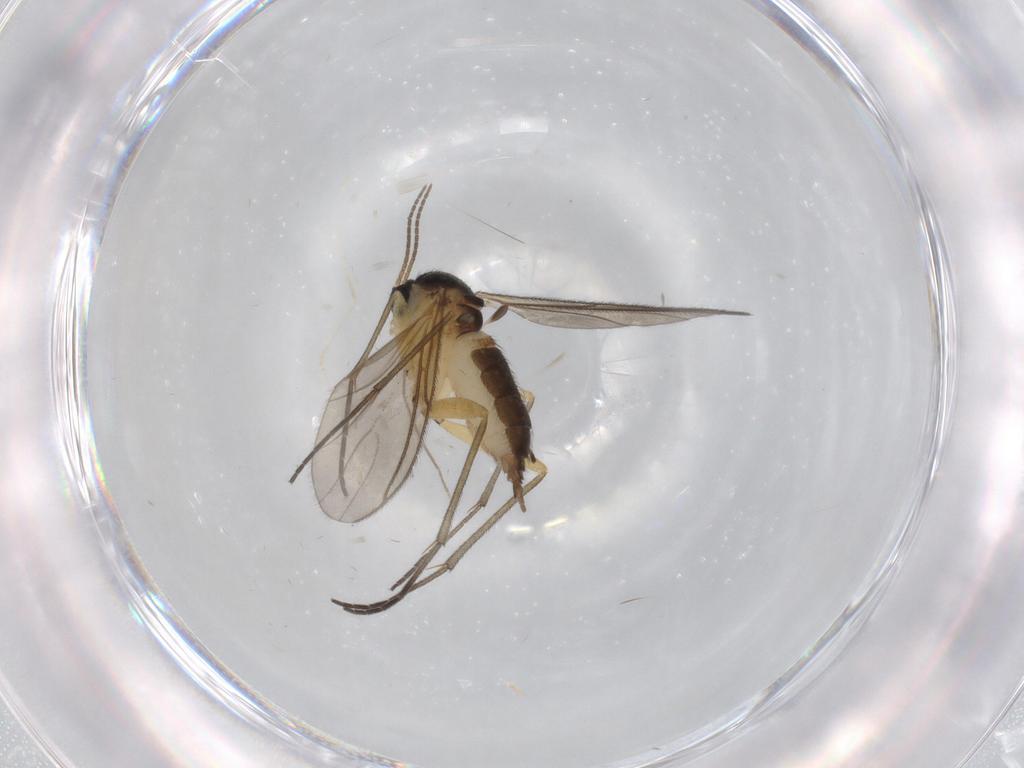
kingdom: Animalia
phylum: Arthropoda
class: Insecta
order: Diptera
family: Sciaridae
